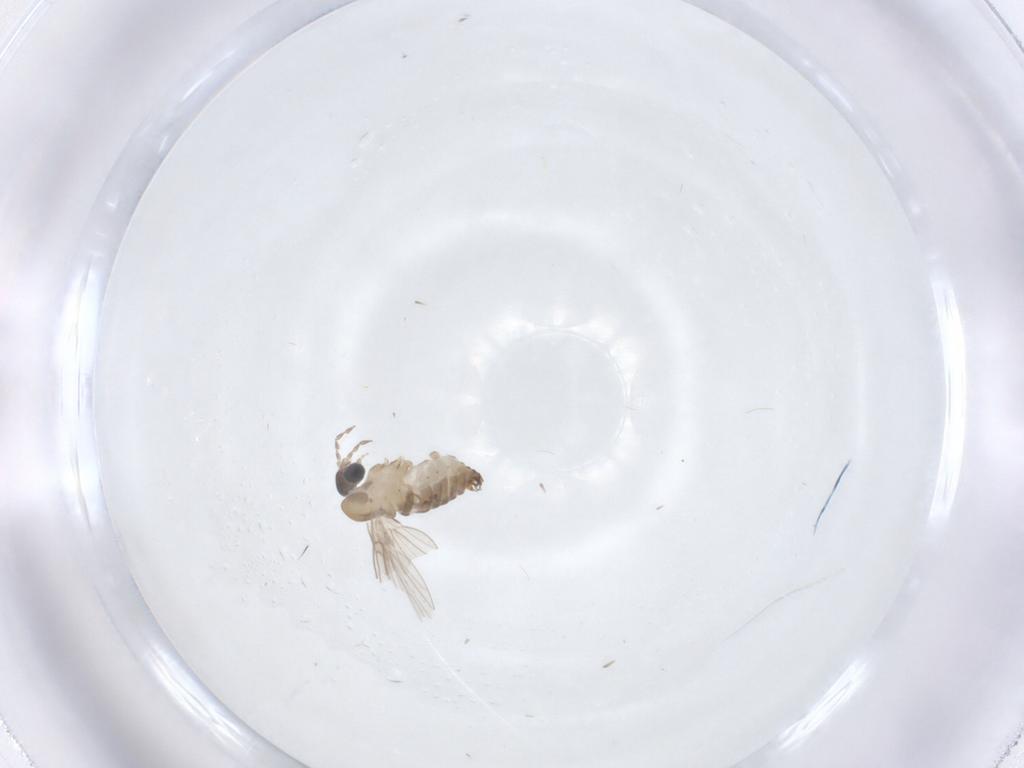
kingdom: Animalia
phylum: Arthropoda
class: Insecta
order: Diptera
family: Psychodidae
